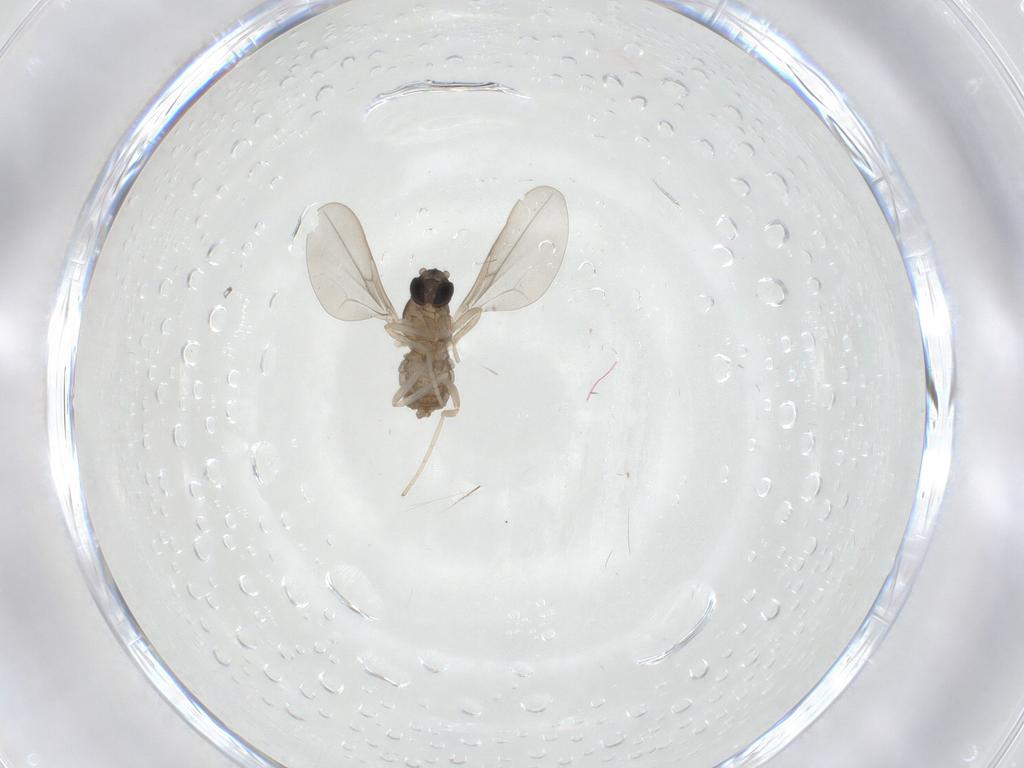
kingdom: Animalia
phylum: Arthropoda
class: Insecta
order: Diptera
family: Cecidomyiidae
